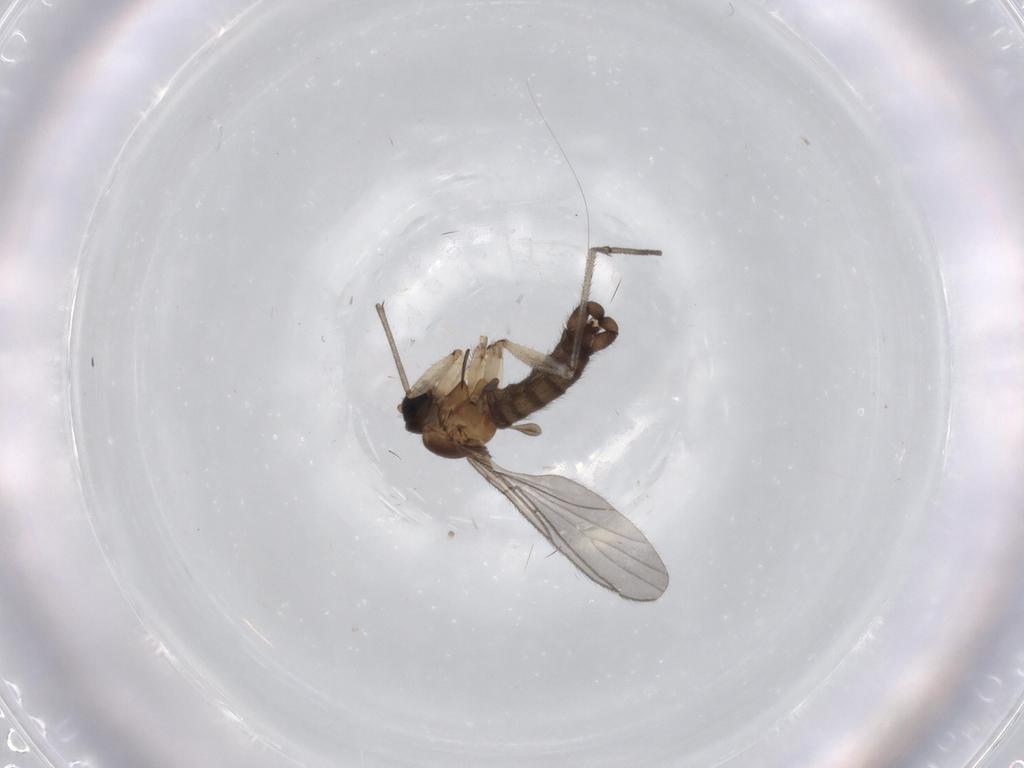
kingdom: Animalia
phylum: Arthropoda
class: Insecta
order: Diptera
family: Sciaridae
